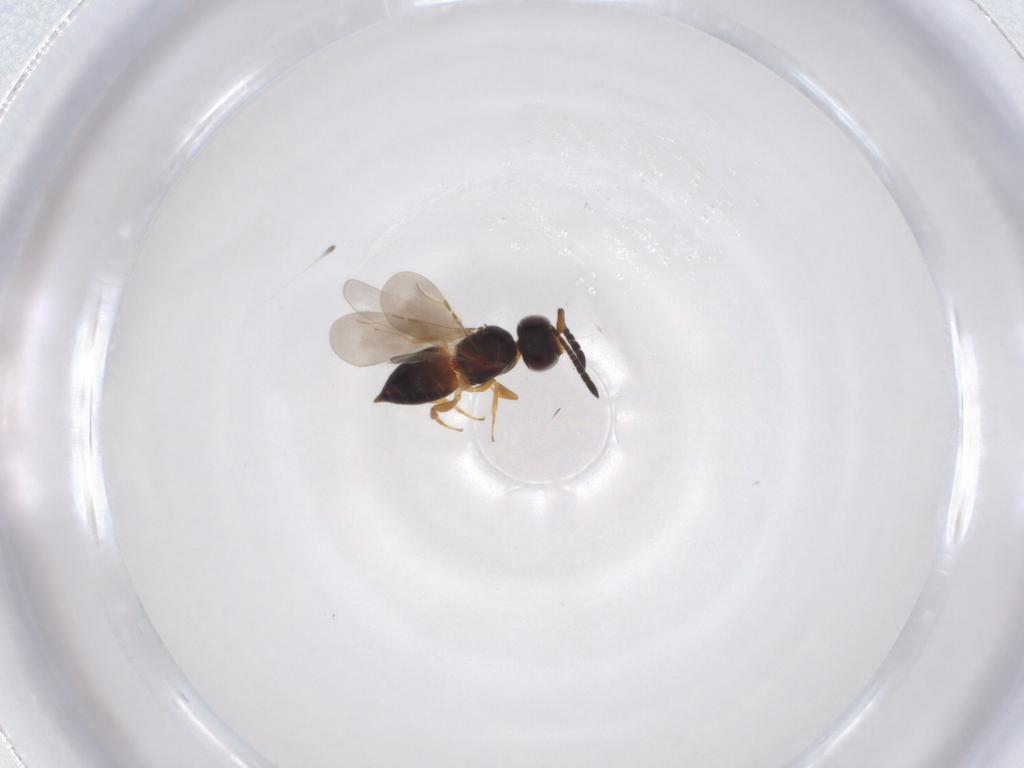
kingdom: Animalia
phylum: Arthropoda
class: Insecta
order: Hymenoptera
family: Ceraphronidae
